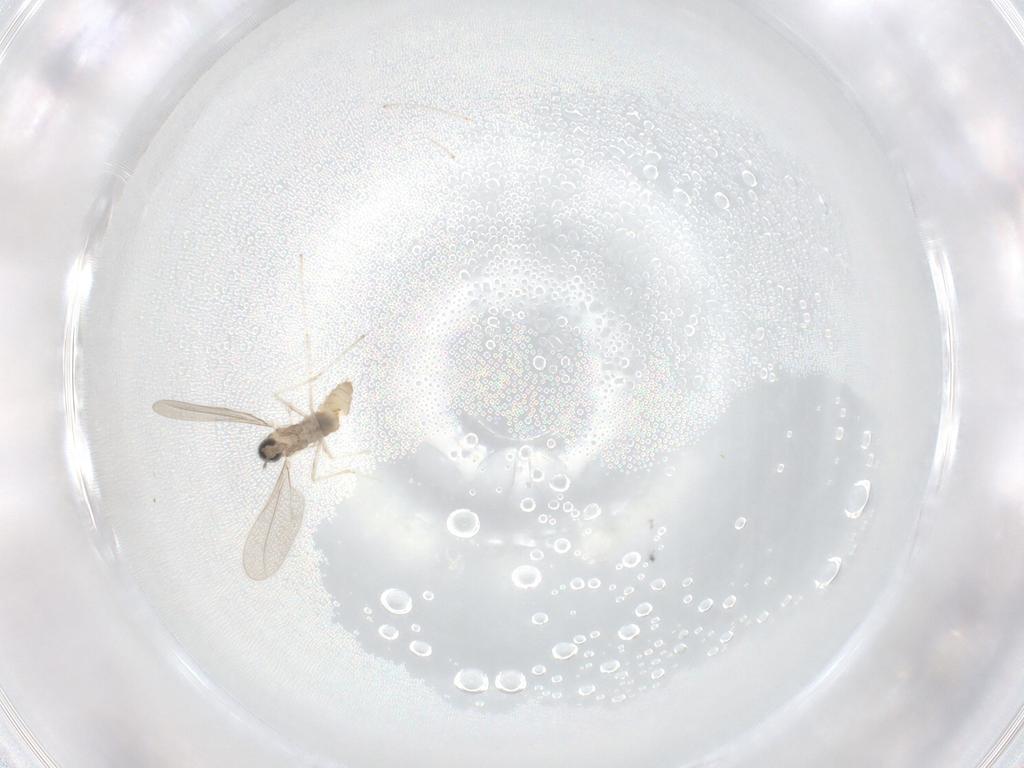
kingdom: Animalia
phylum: Arthropoda
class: Insecta
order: Diptera
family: Cecidomyiidae
